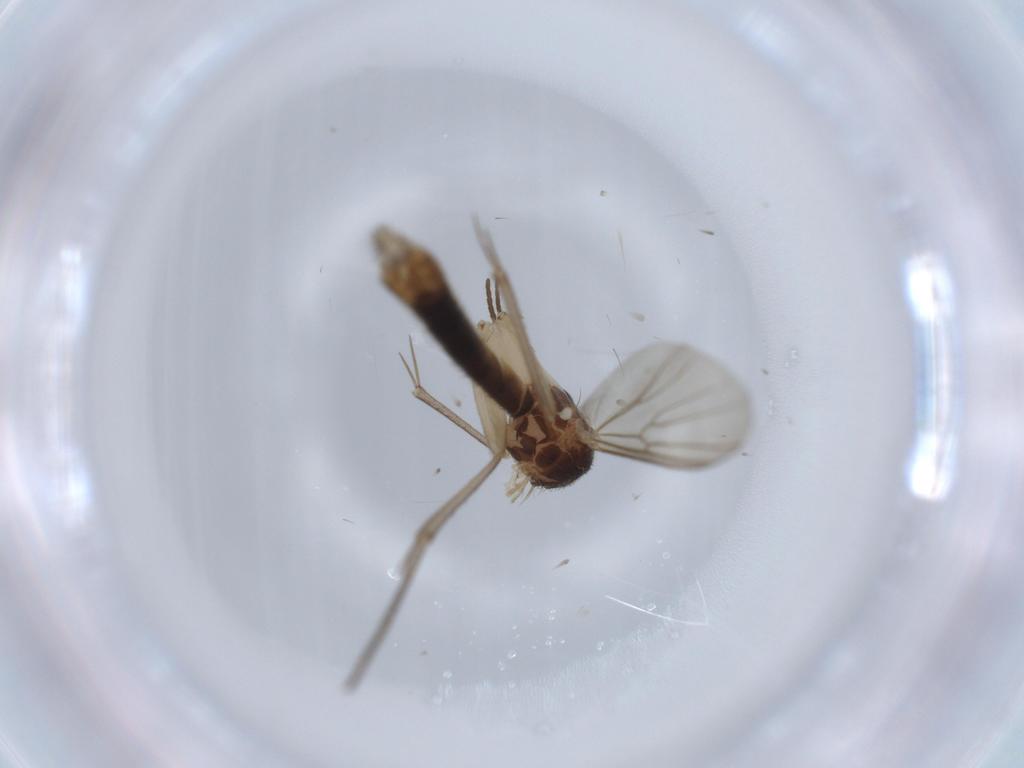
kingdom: Animalia
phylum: Arthropoda
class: Insecta
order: Diptera
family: Mycetophilidae
